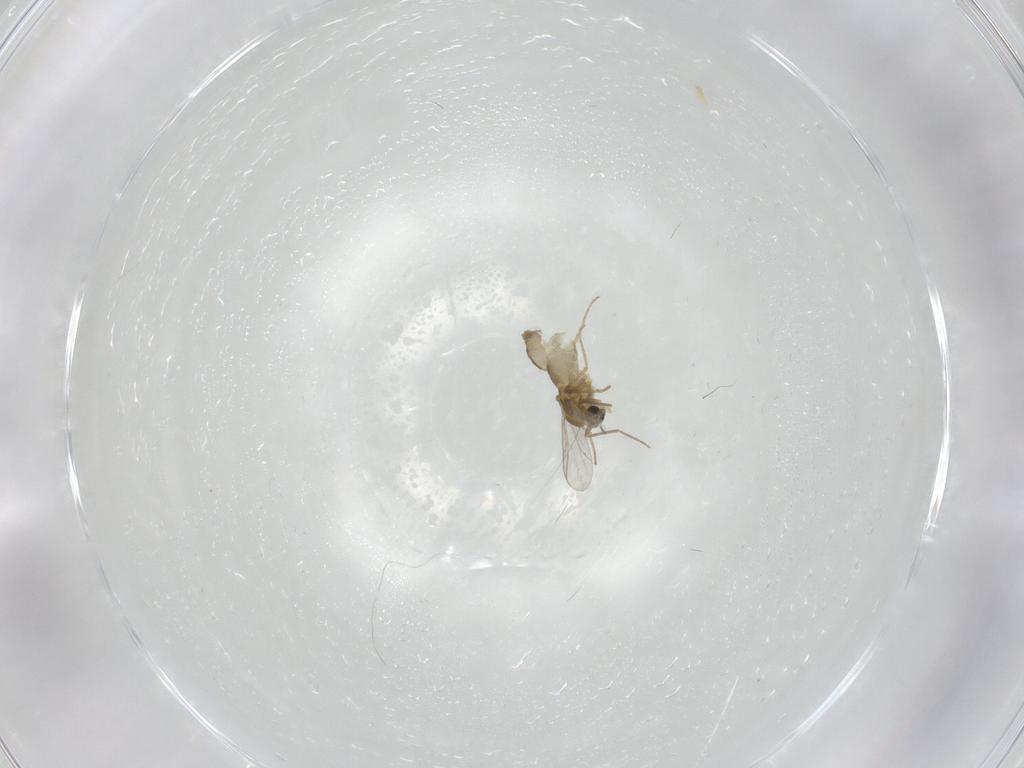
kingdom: Animalia
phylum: Arthropoda
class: Insecta
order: Diptera
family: Chironomidae
